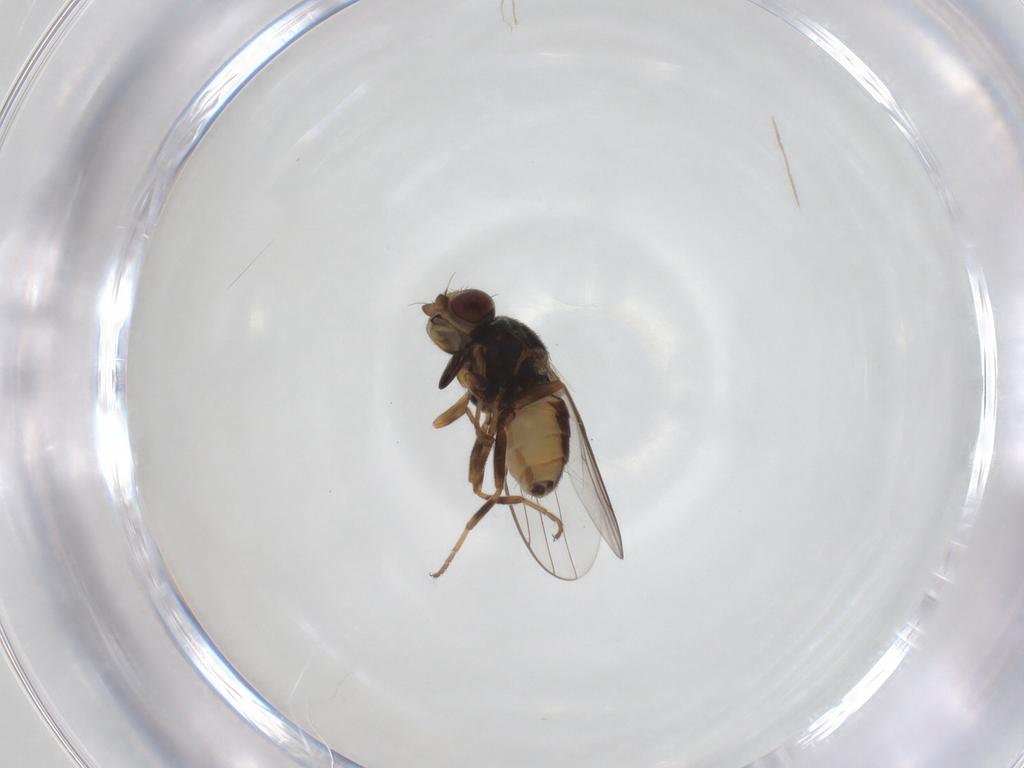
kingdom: Animalia
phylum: Arthropoda
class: Insecta
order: Diptera
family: Chloropidae
